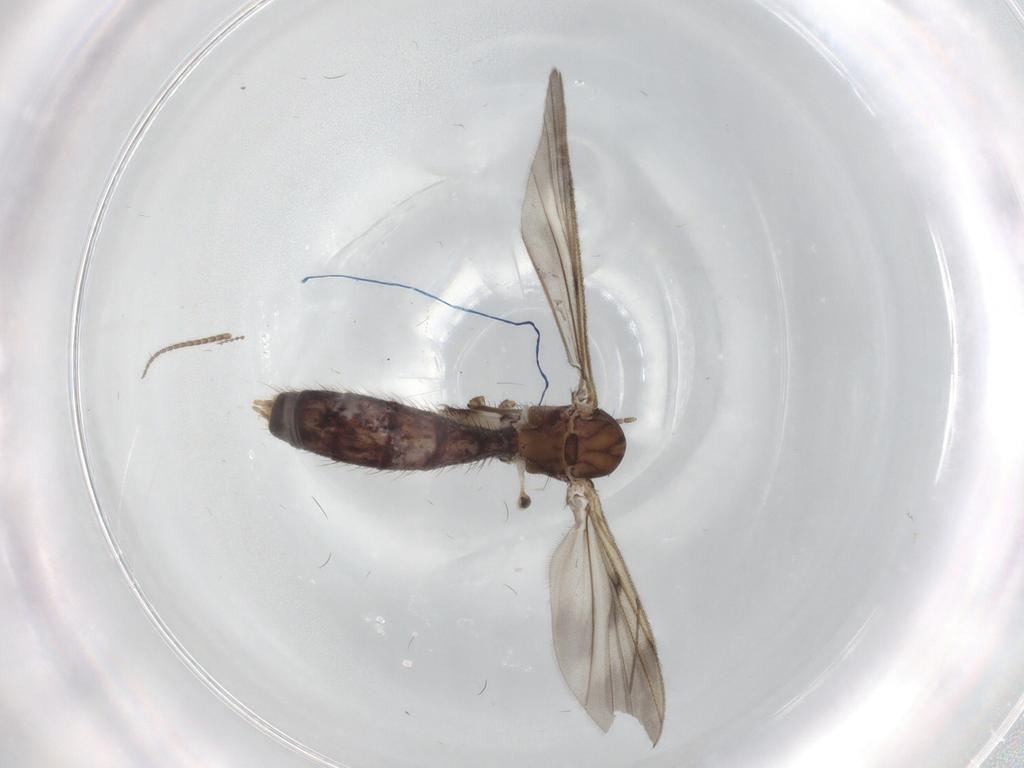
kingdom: Animalia
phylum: Arthropoda
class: Insecta
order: Diptera
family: Mycetophilidae
